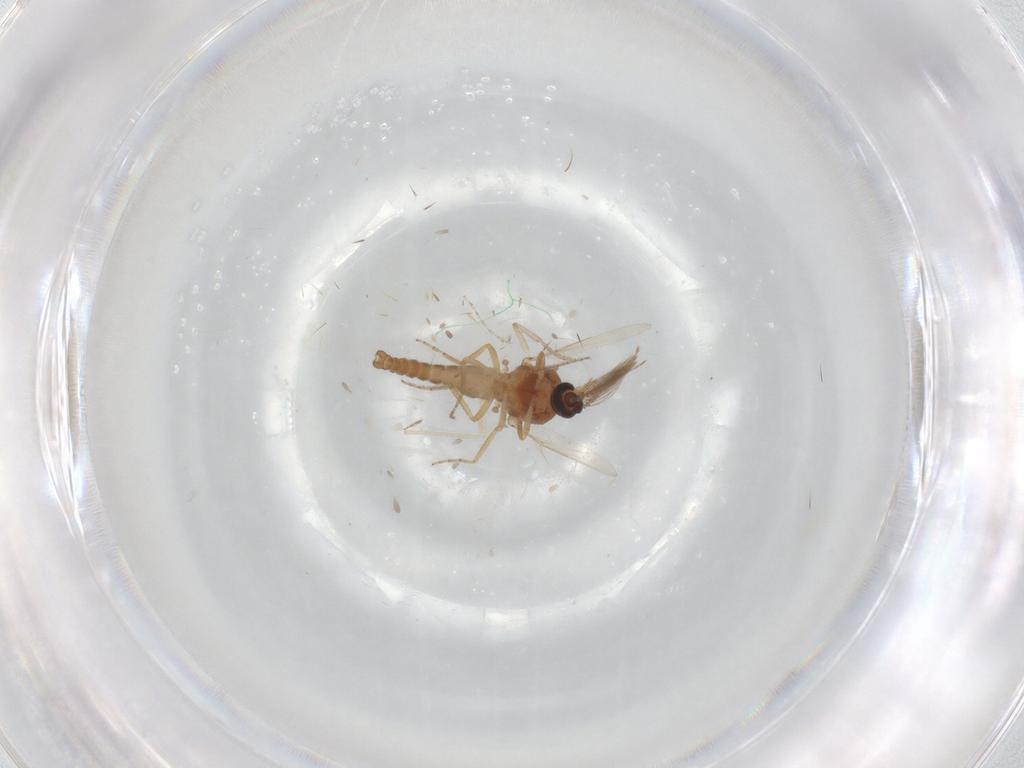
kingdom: Animalia
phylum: Arthropoda
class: Insecta
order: Diptera
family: Ceratopogonidae
